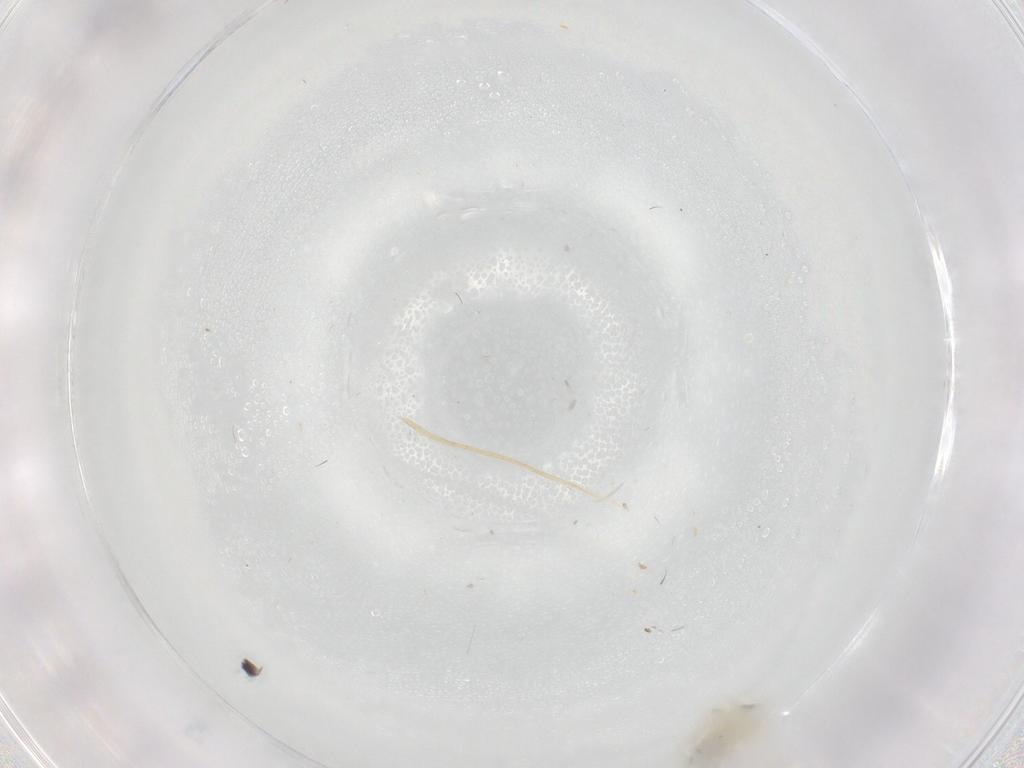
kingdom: Animalia
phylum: Arthropoda
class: Insecta
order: Hemiptera
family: Aleyrodidae
